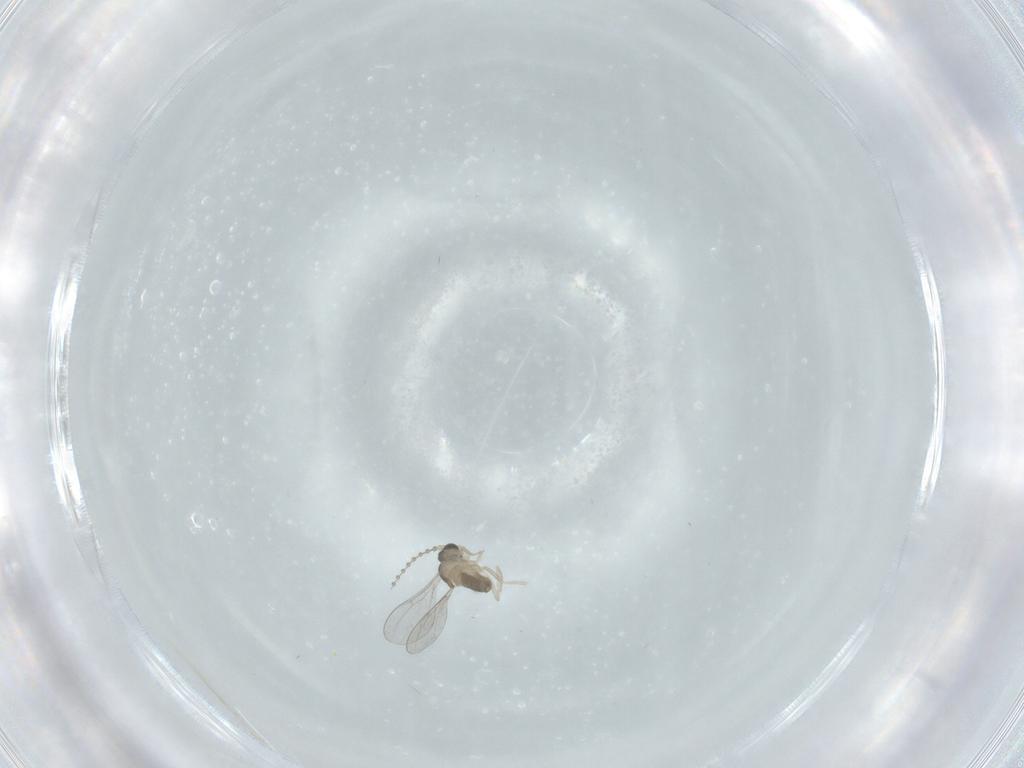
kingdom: Animalia
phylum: Arthropoda
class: Insecta
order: Diptera
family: Cecidomyiidae
